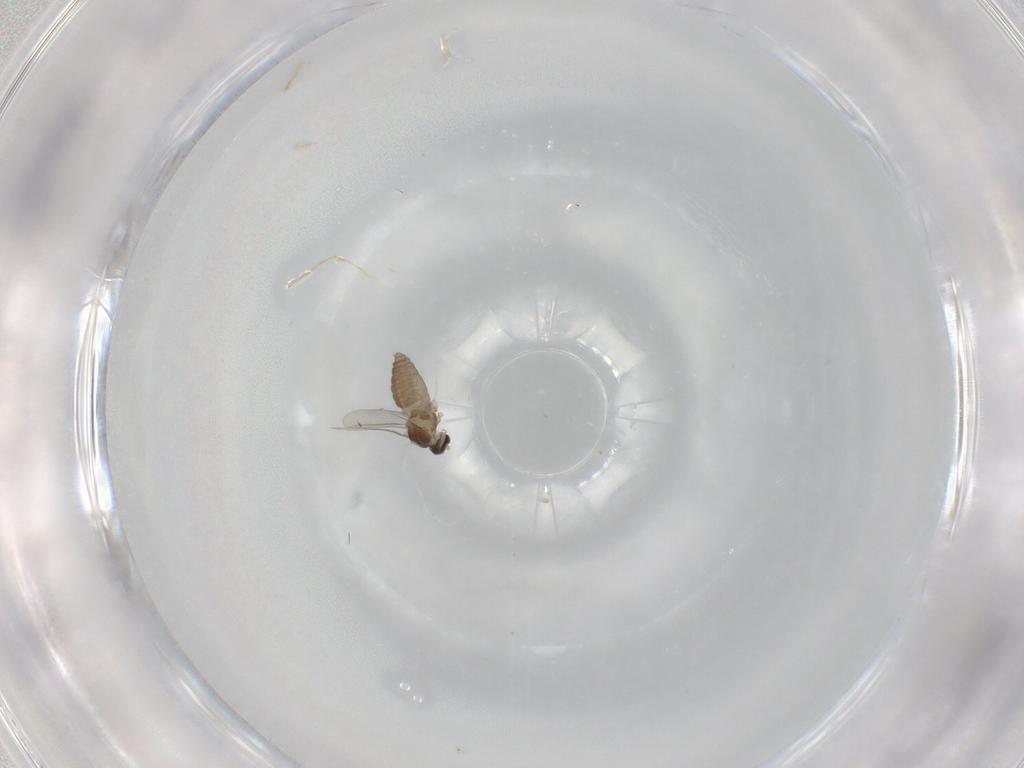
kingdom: Animalia
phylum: Arthropoda
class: Insecta
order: Diptera
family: Cecidomyiidae
